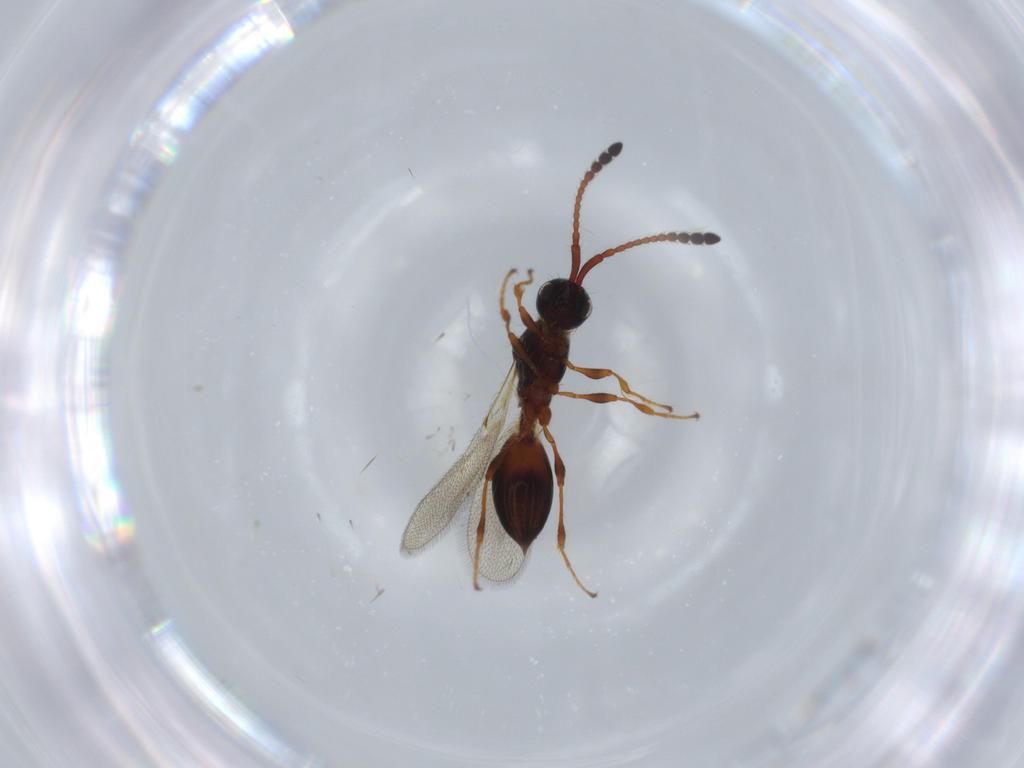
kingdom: Animalia
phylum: Arthropoda
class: Insecta
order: Hymenoptera
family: Diapriidae
